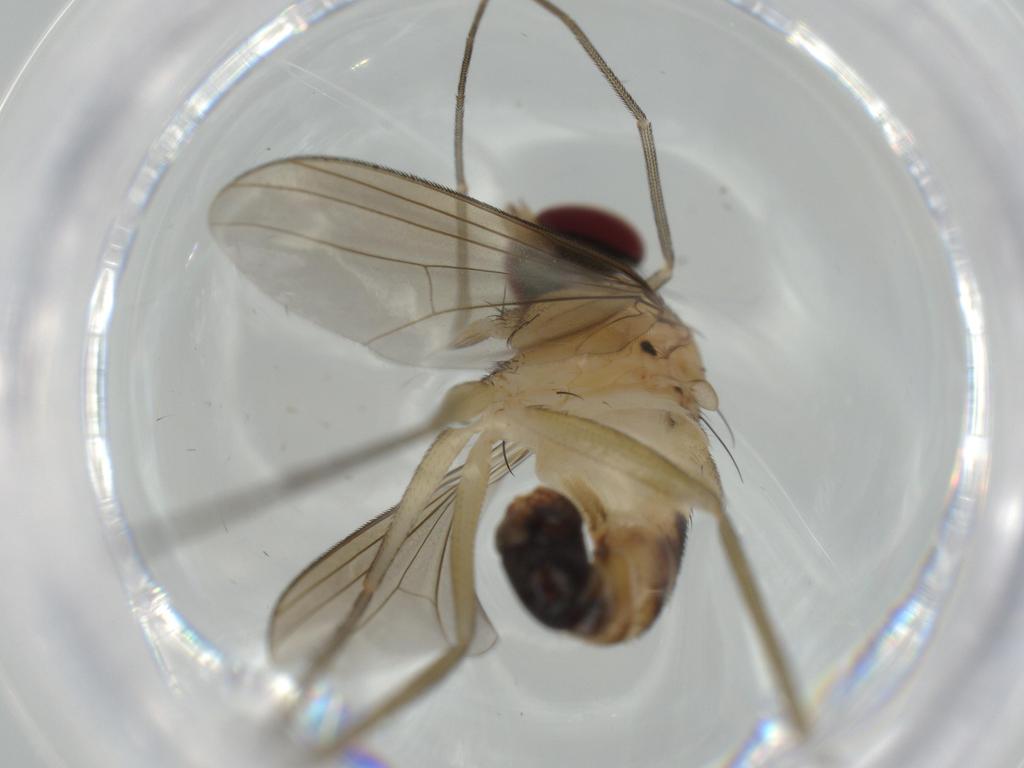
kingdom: Animalia
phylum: Arthropoda
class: Insecta
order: Diptera
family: Dolichopodidae
